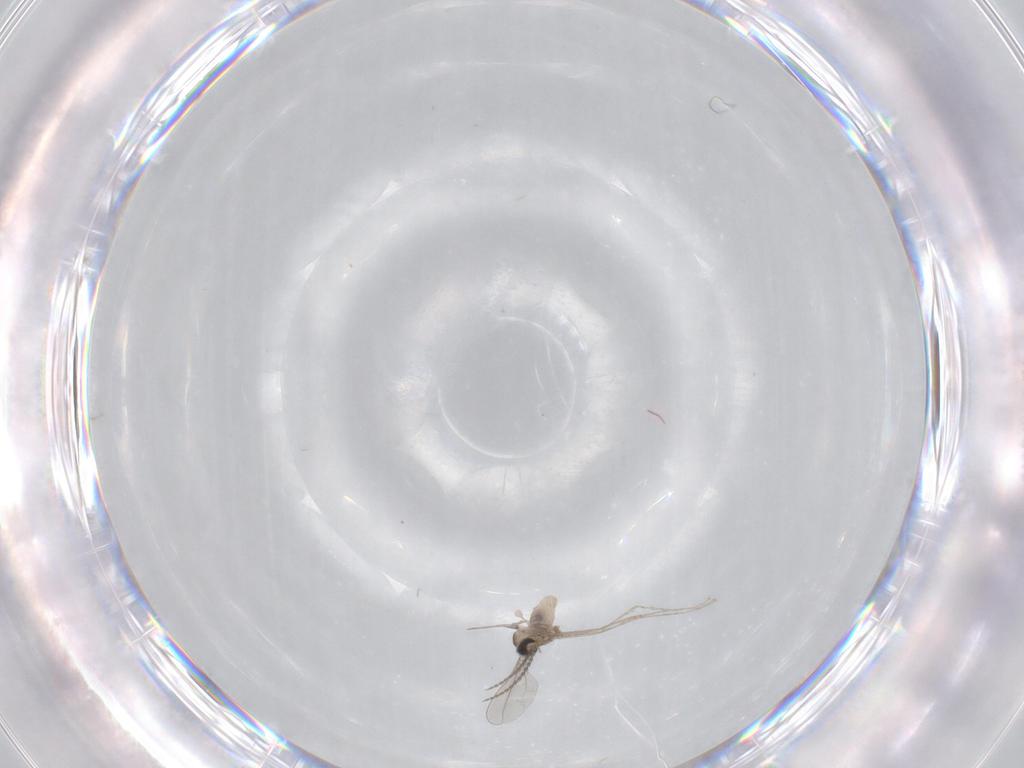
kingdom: Animalia
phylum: Arthropoda
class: Insecta
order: Diptera
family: Cecidomyiidae
